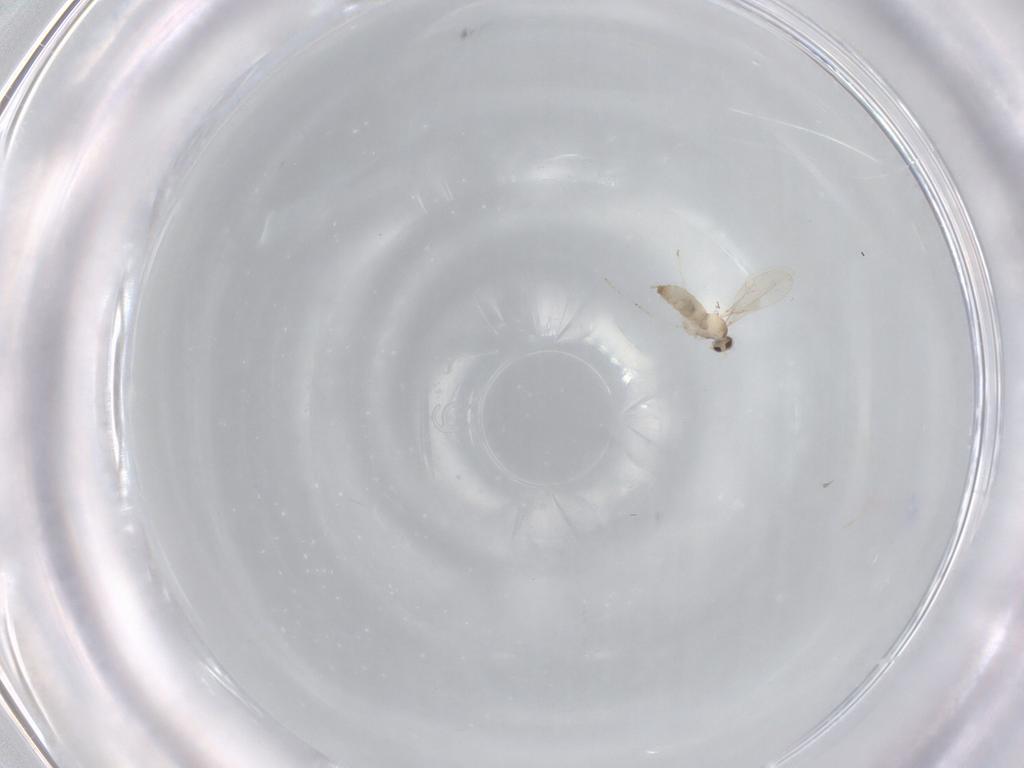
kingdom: Animalia
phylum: Arthropoda
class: Insecta
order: Diptera
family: Cecidomyiidae
